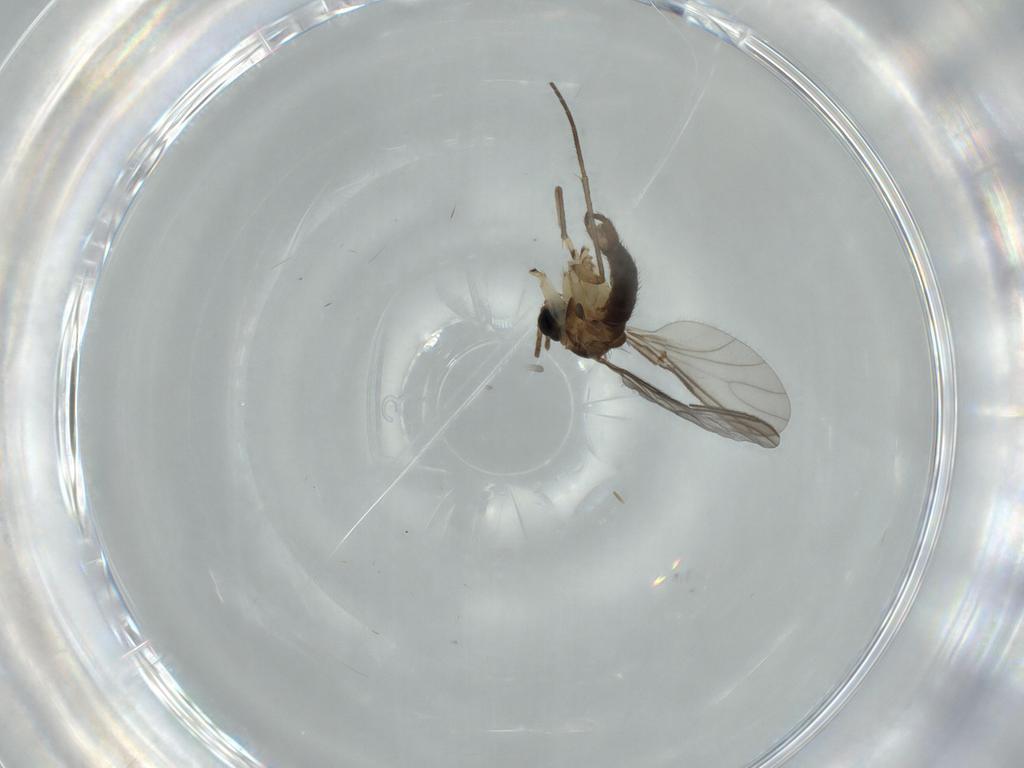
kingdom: Animalia
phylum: Arthropoda
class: Insecta
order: Diptera
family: Sciaridae
